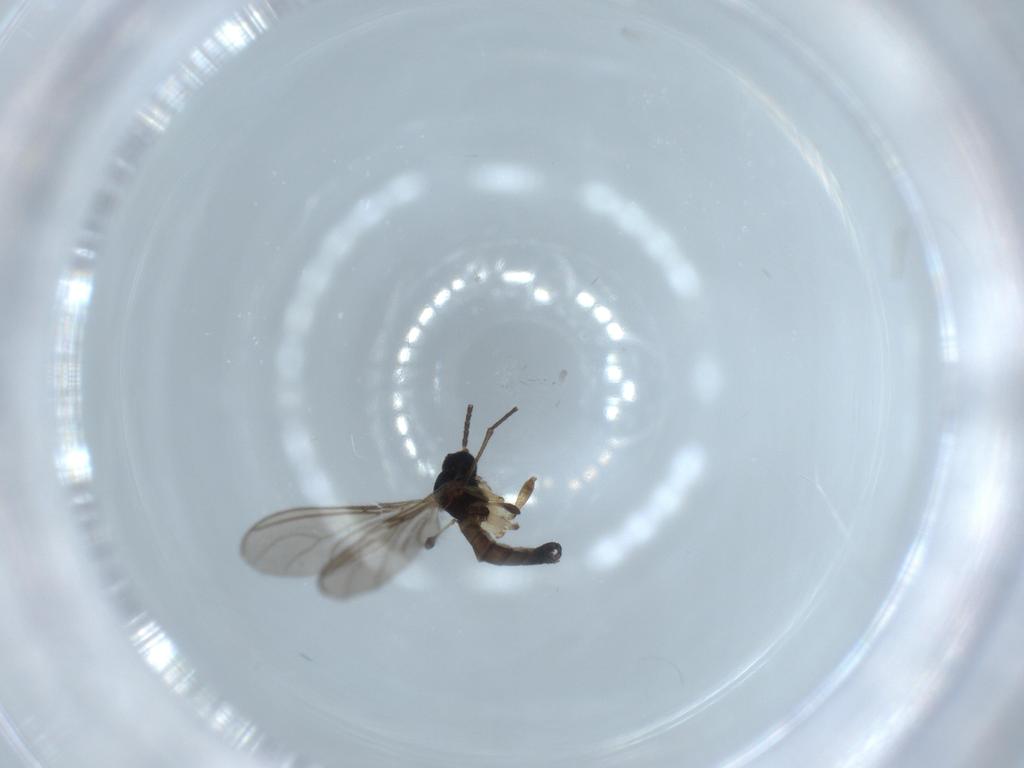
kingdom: Animalia
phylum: Arthropoda
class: Insecta
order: Diptera
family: Sciaridae
